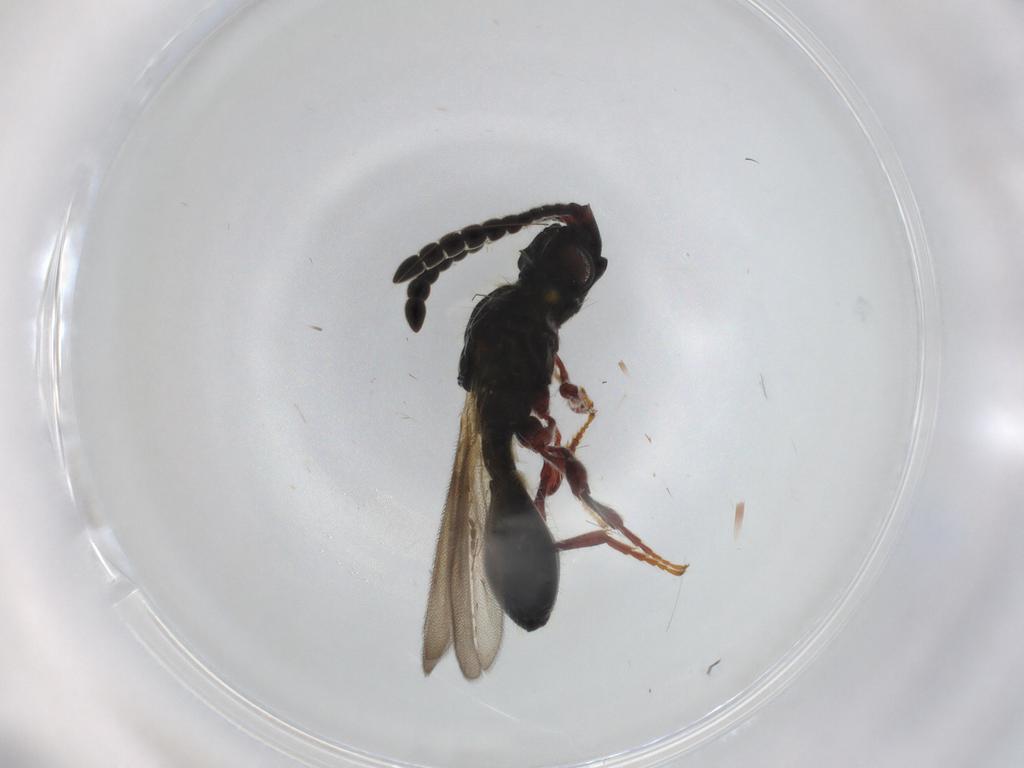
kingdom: Animalia
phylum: Arthropoda
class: Insecta
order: Hymenoptera
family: Diapriidae
